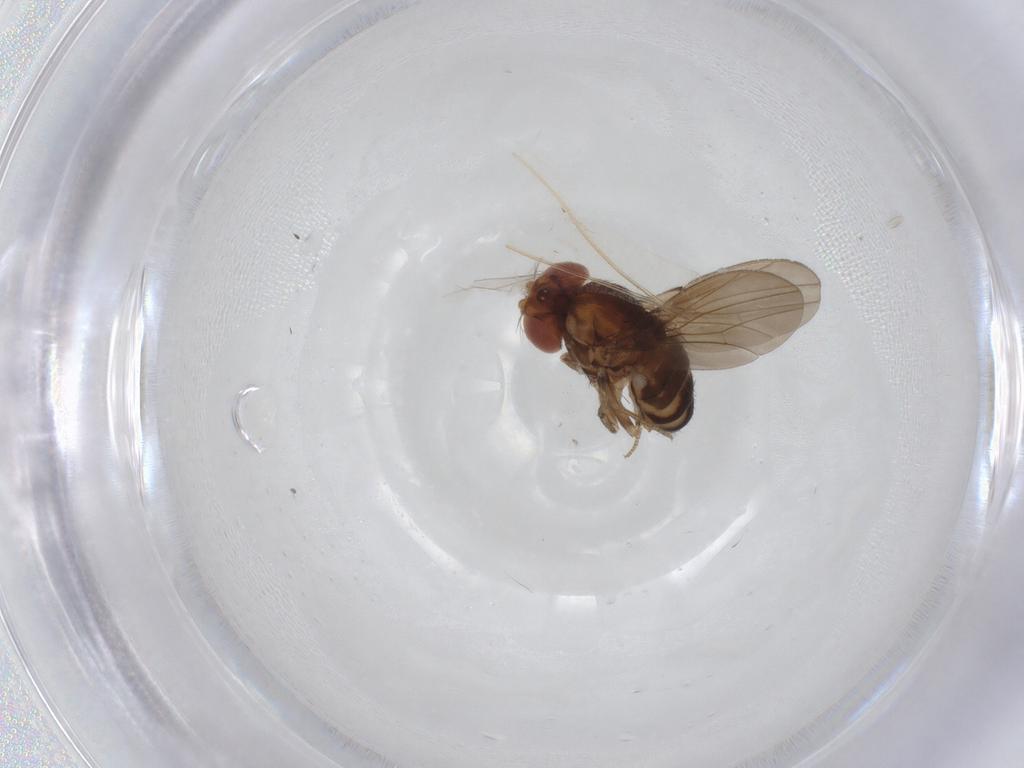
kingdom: Animalia
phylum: Arthropoda
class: Insecta
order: Diptera
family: Drosophilidae
